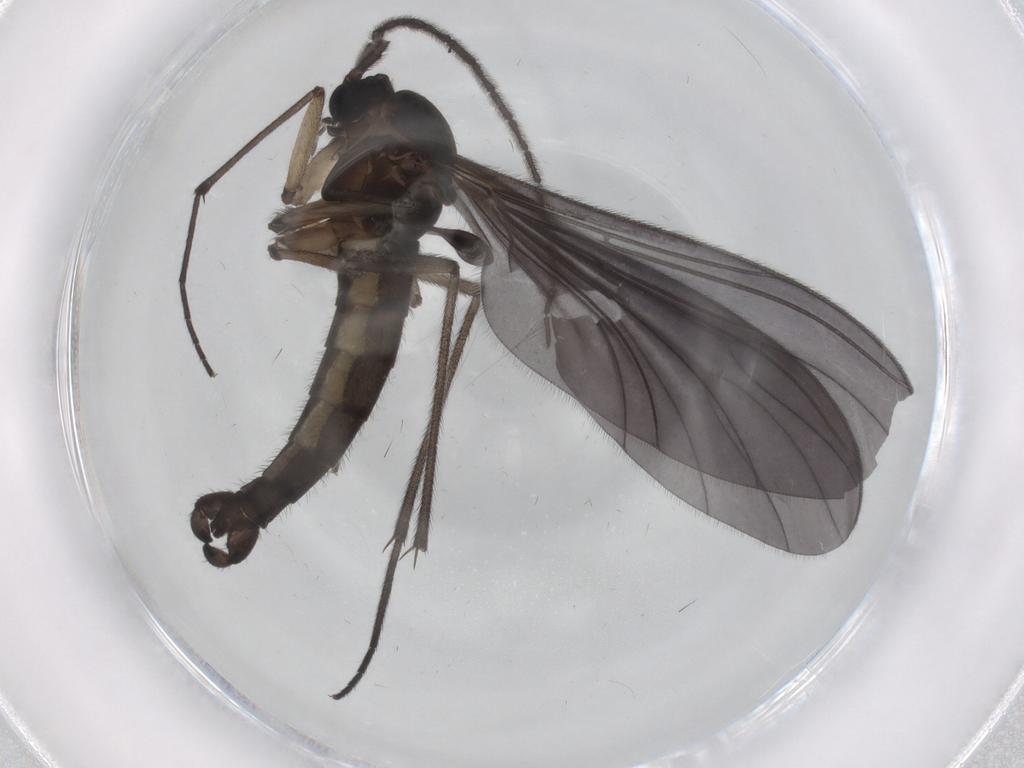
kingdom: Animalia
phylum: Arthropoda
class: Insecta
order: Diptera
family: Sciaridae
